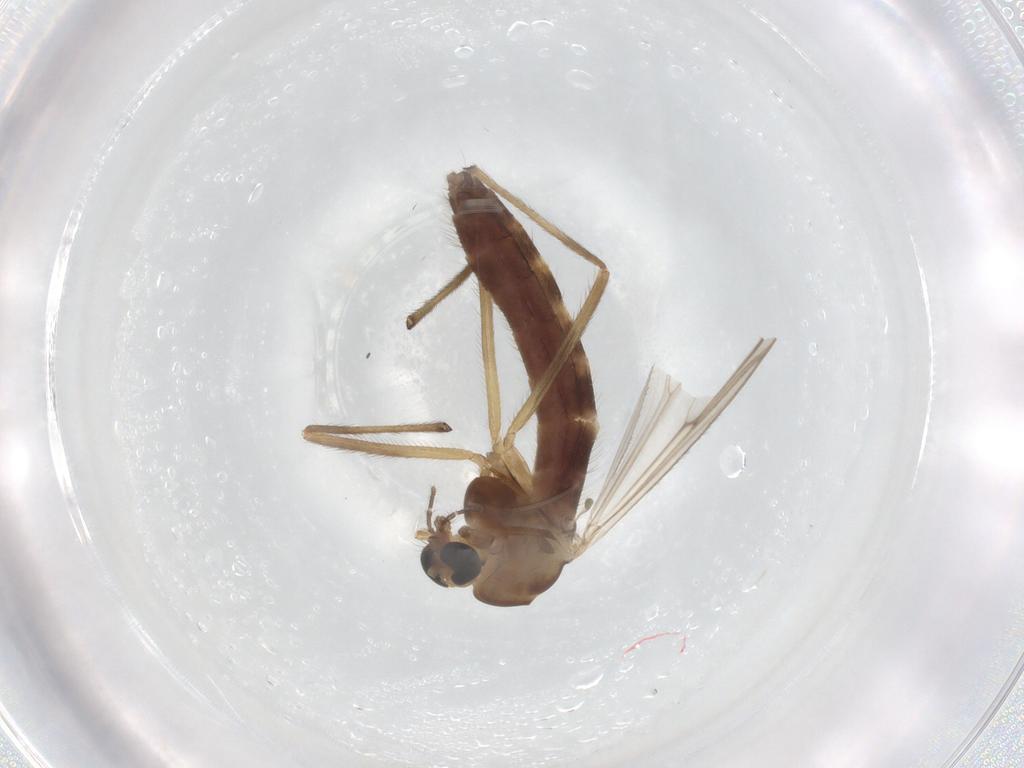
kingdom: Animalia
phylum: Arthropoda
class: Insecta
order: Diptera
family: Chironomidae
